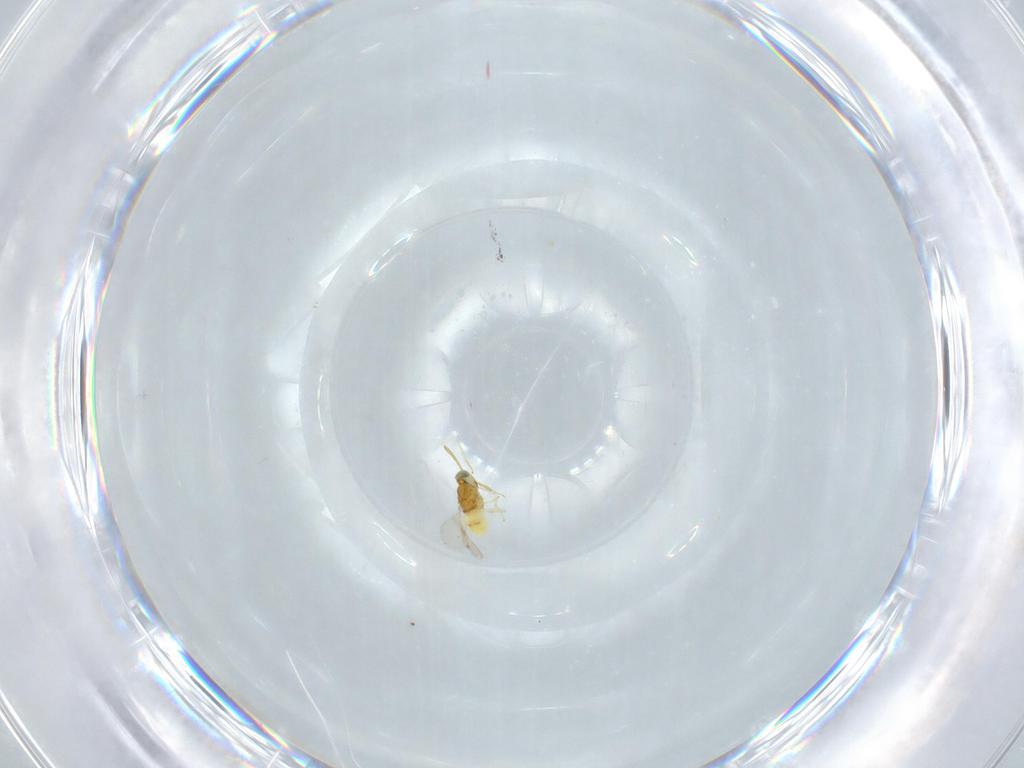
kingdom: Animalia
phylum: Arthropoda
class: Insecta
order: Hymenoptera
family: Aphelinidae
